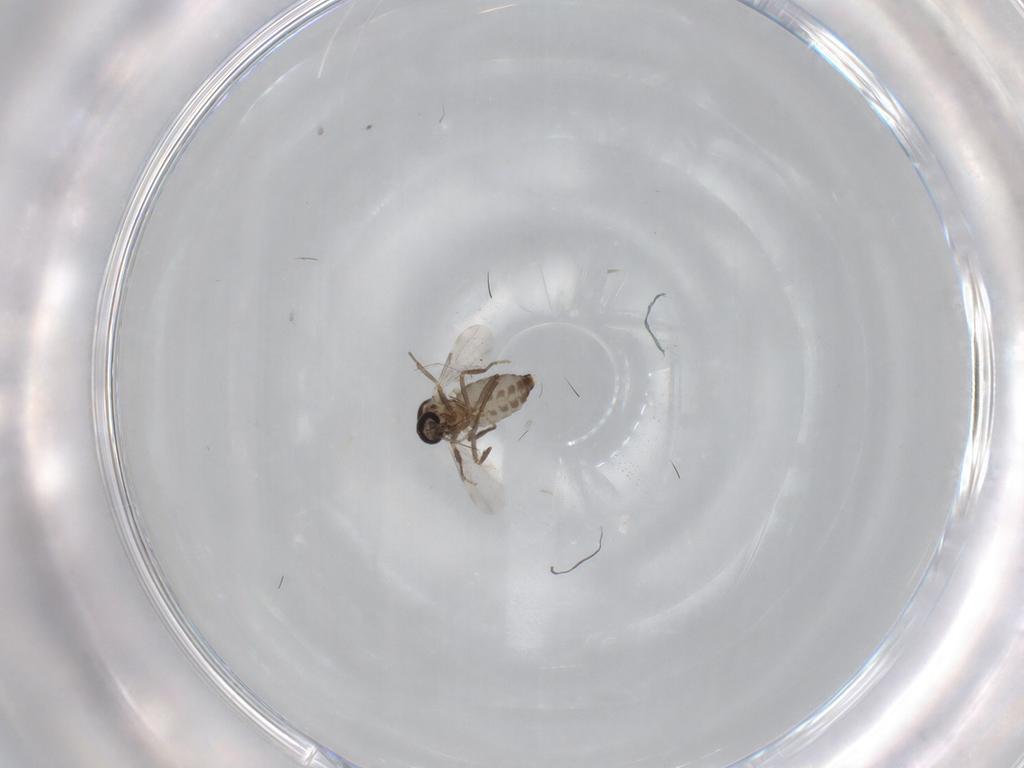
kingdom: Animalia
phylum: Arthropoda
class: Insecta
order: Diptera
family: Ceratopogonidae
